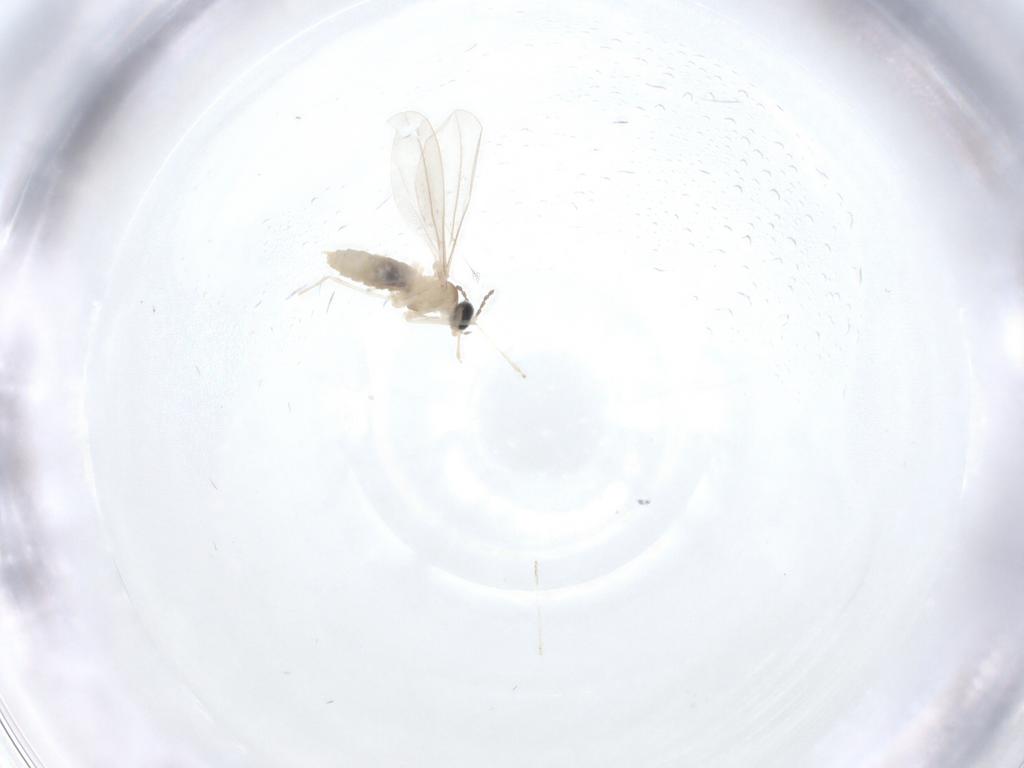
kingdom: Animalia
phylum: Arthropoda
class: Insecta
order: Diptera
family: Cecidomyiidae
